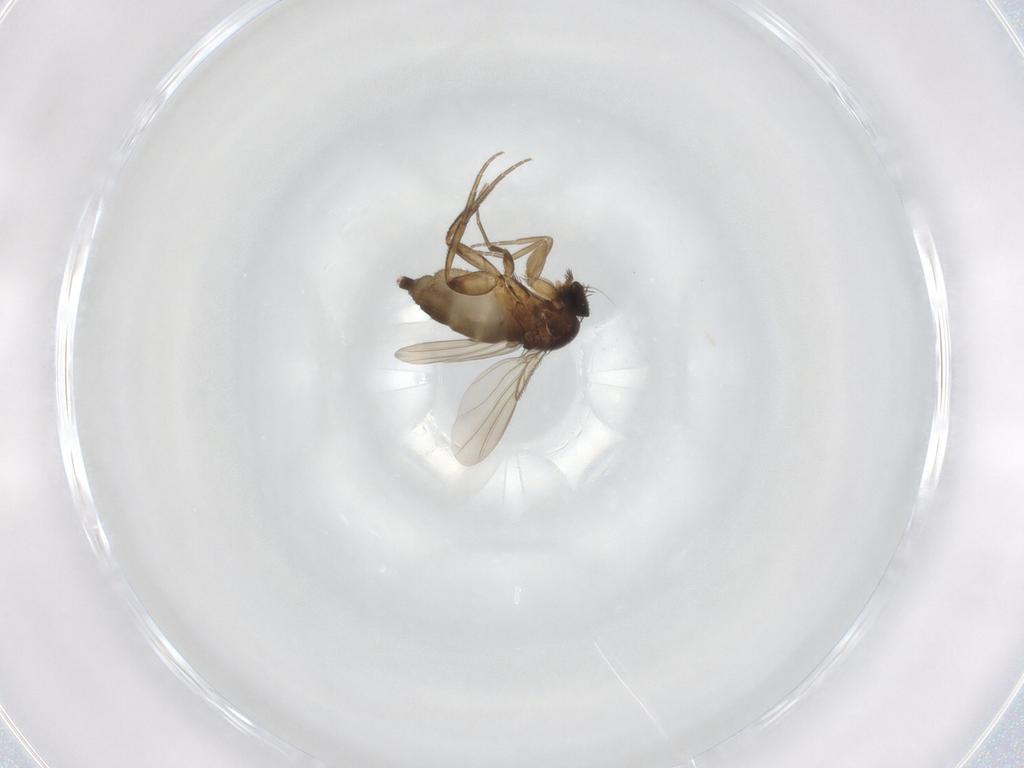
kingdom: Animalia
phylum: Arthropoda
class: Insecta
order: Diptera
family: Phoridae
